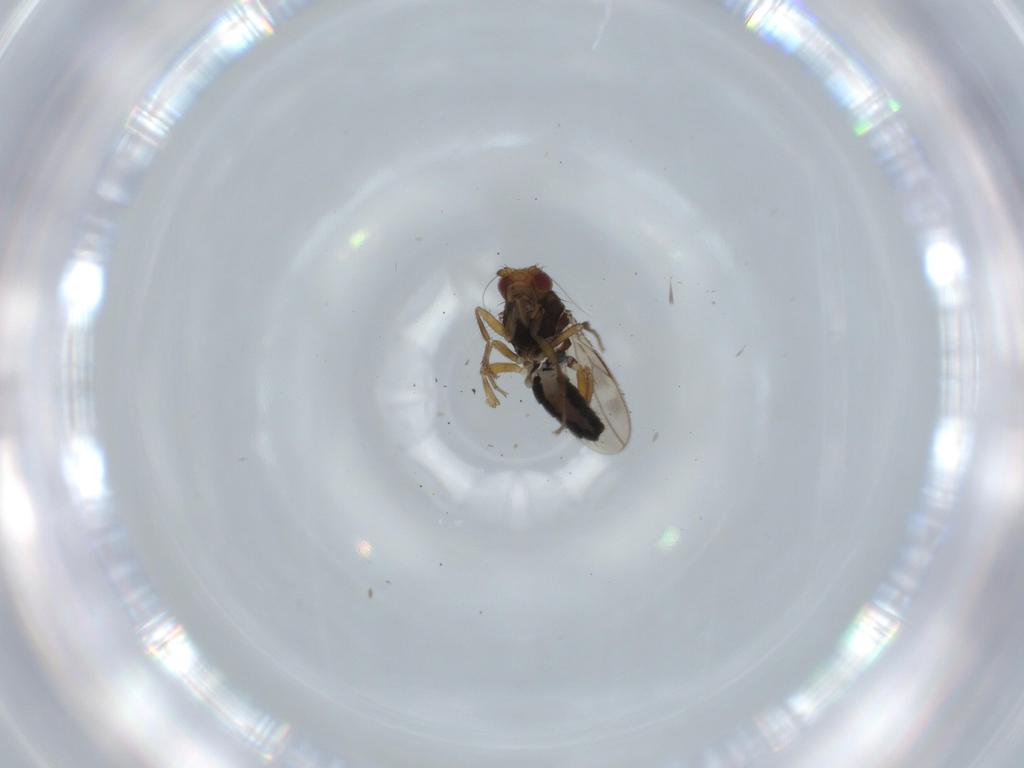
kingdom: Animalia
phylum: Arthropoda
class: Insecta
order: Diptera
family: Sphaeroceridae
